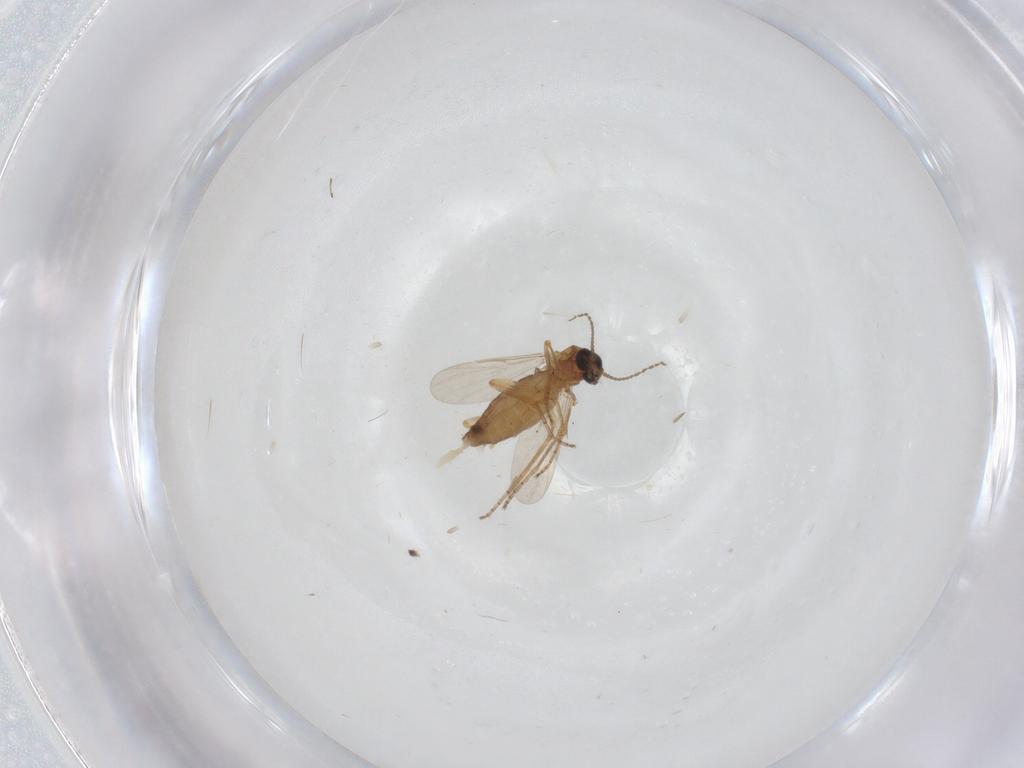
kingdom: Animalia
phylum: Arthropoda
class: Insecta
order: Diptera
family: Ceratopogonidae
